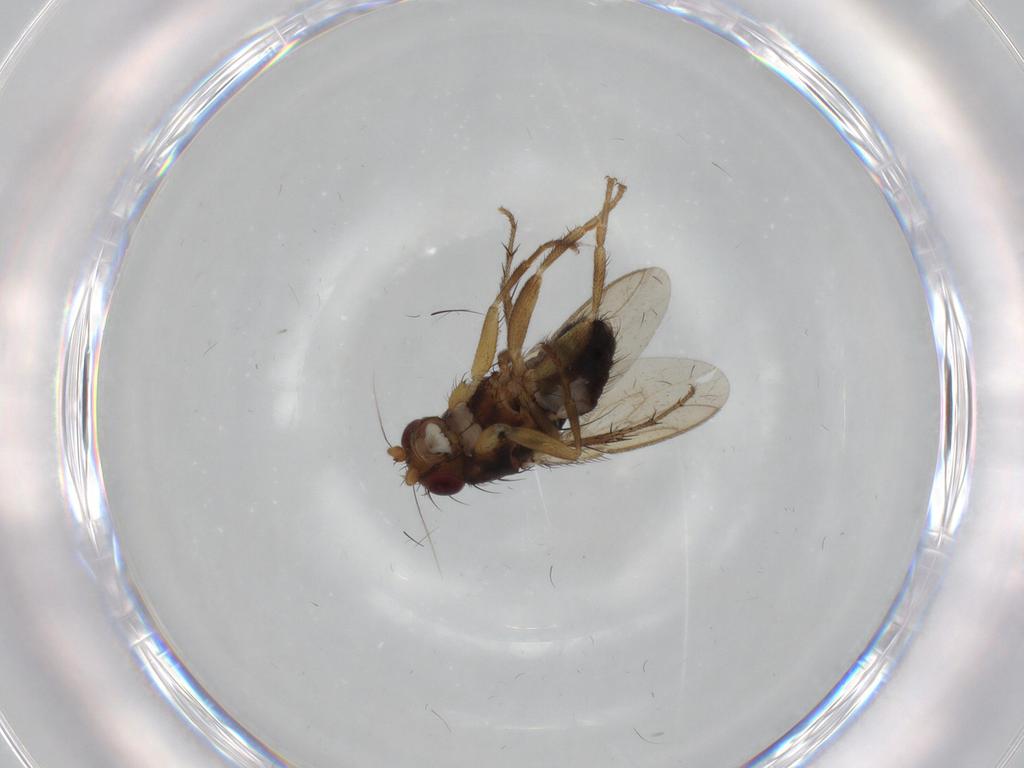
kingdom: Animalia
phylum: Arthropoda
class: Insecta
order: Diptera
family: Sphaeroceridae
